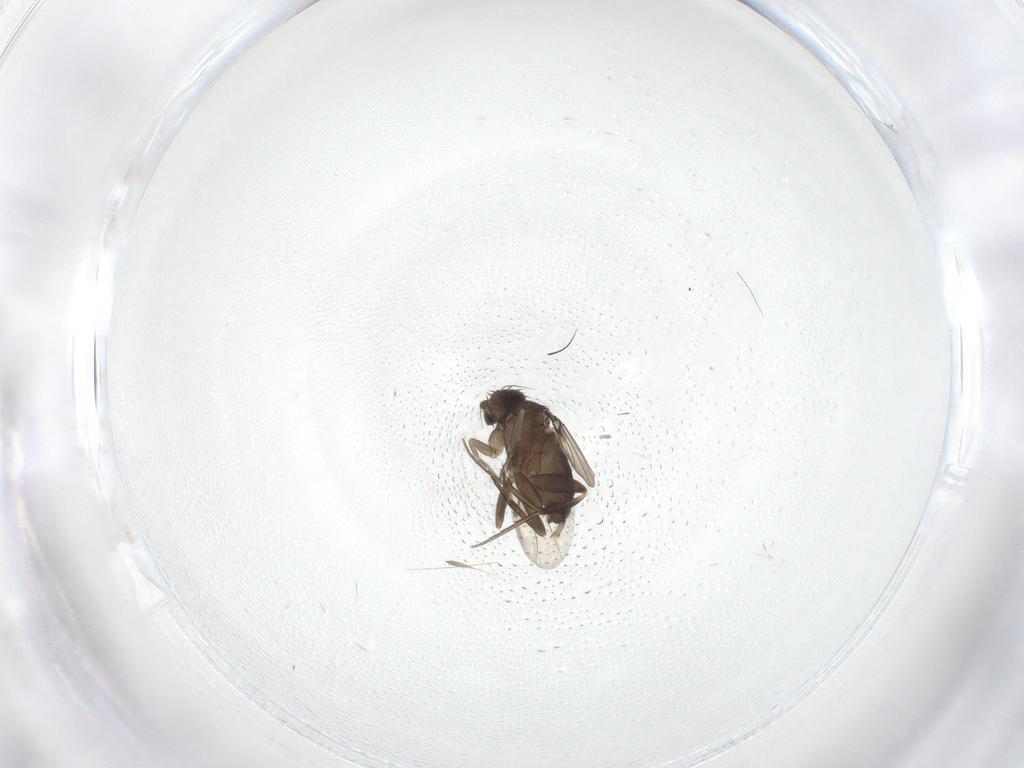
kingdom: Animalia
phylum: Arthropoda
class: Insecta
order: Diptera
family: Phoridae
